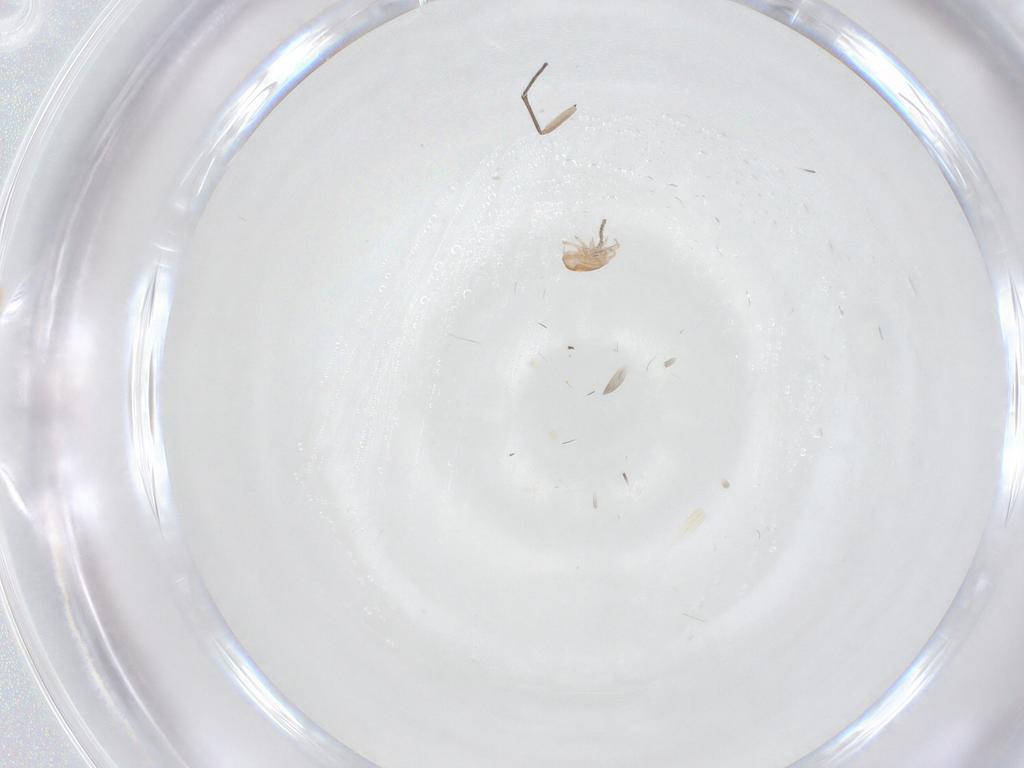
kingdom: Animalia
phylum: Arthropoda
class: Arachnida
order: Mesostigmata
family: Ascidae
